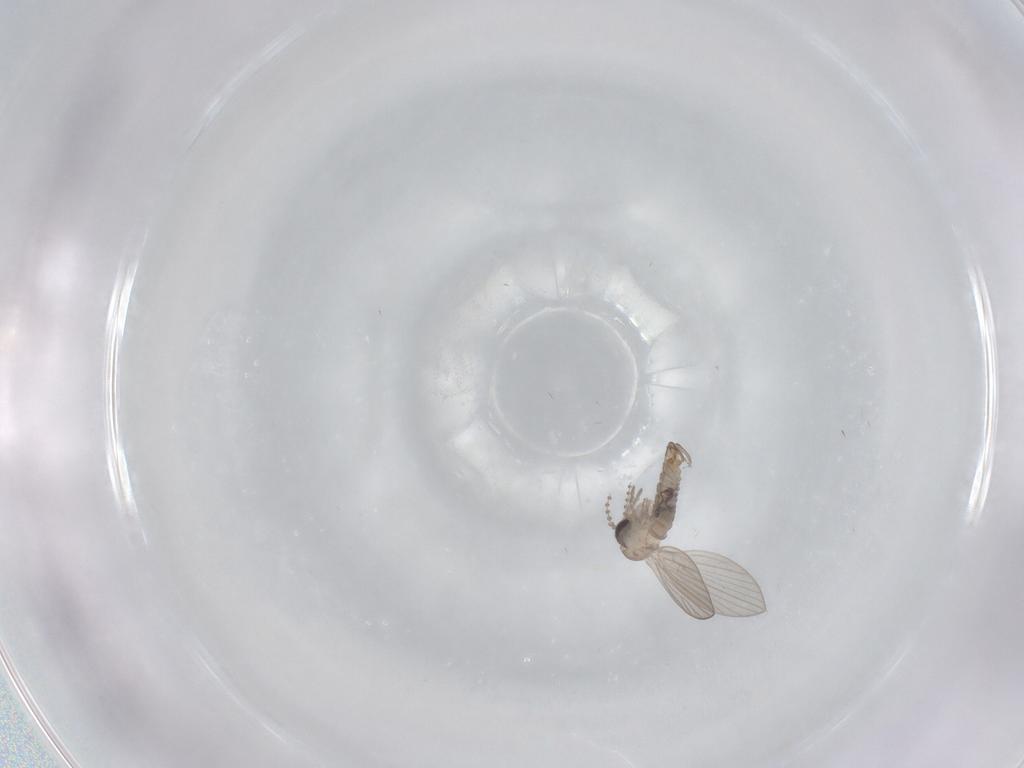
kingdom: Animalia
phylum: Arthropoda
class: Insecta
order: Diptera
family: Psychodidae
